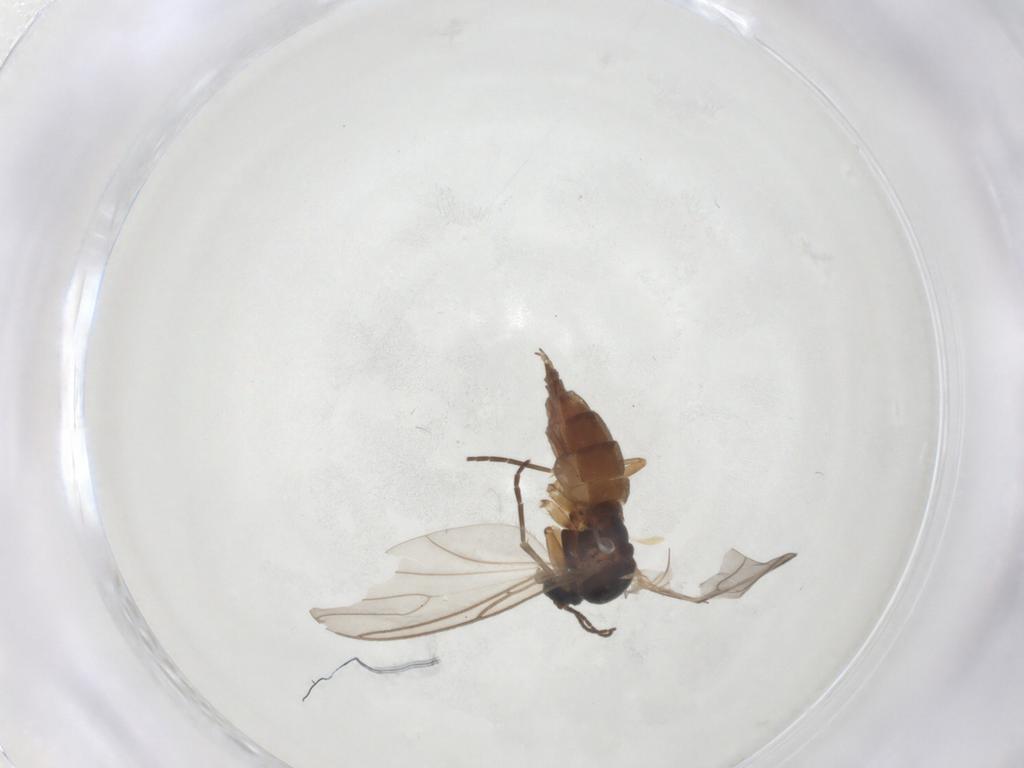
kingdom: Animalia
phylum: Arthropoda
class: Insecta
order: Diptera
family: Sciaridae
